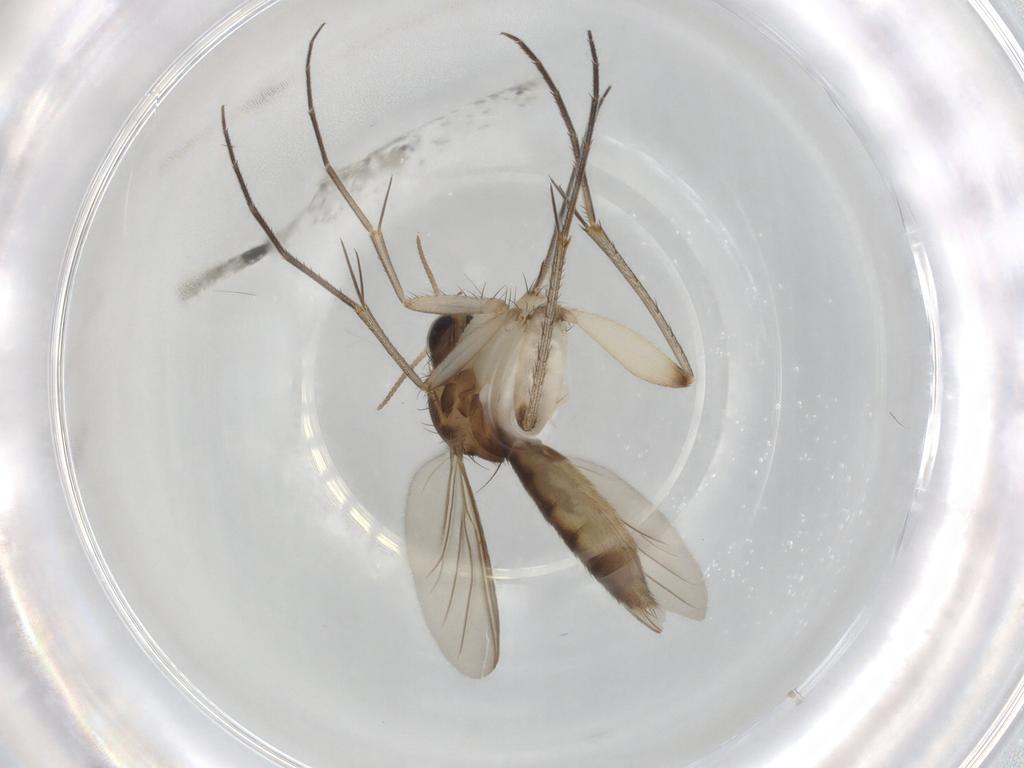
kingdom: Animalia
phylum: Arthropoda
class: Insecta
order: Diptera
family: Mycetophilidae
